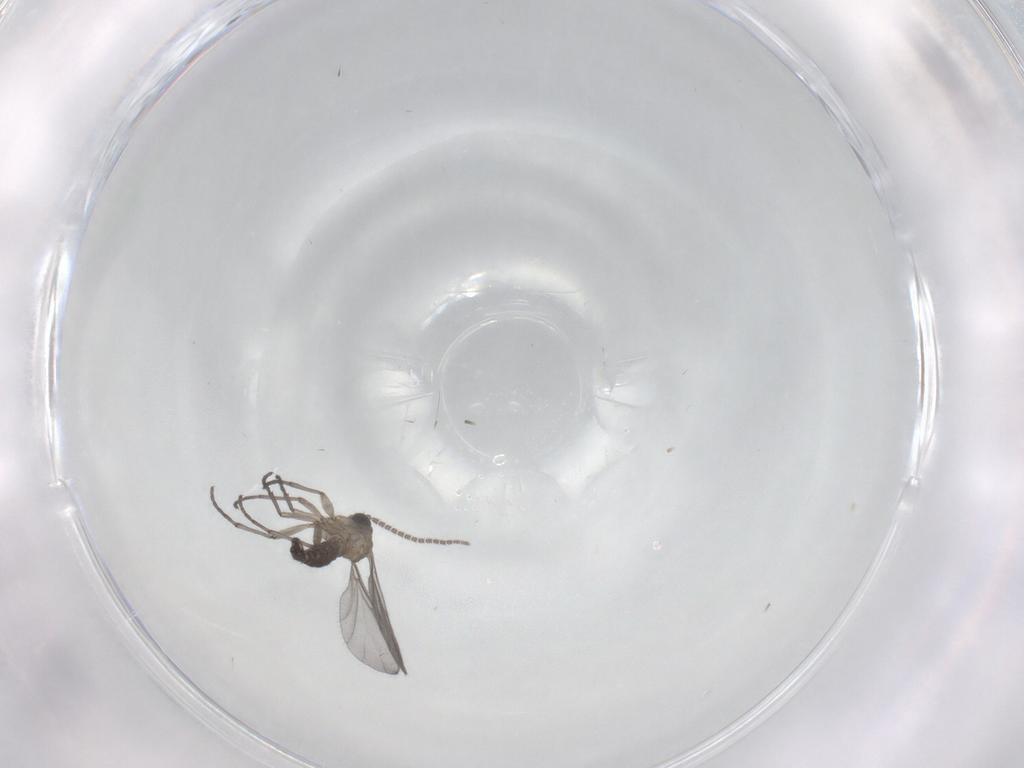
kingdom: Animalia
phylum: Arthropoda
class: Insecta
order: Diptera
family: Sciaridae
